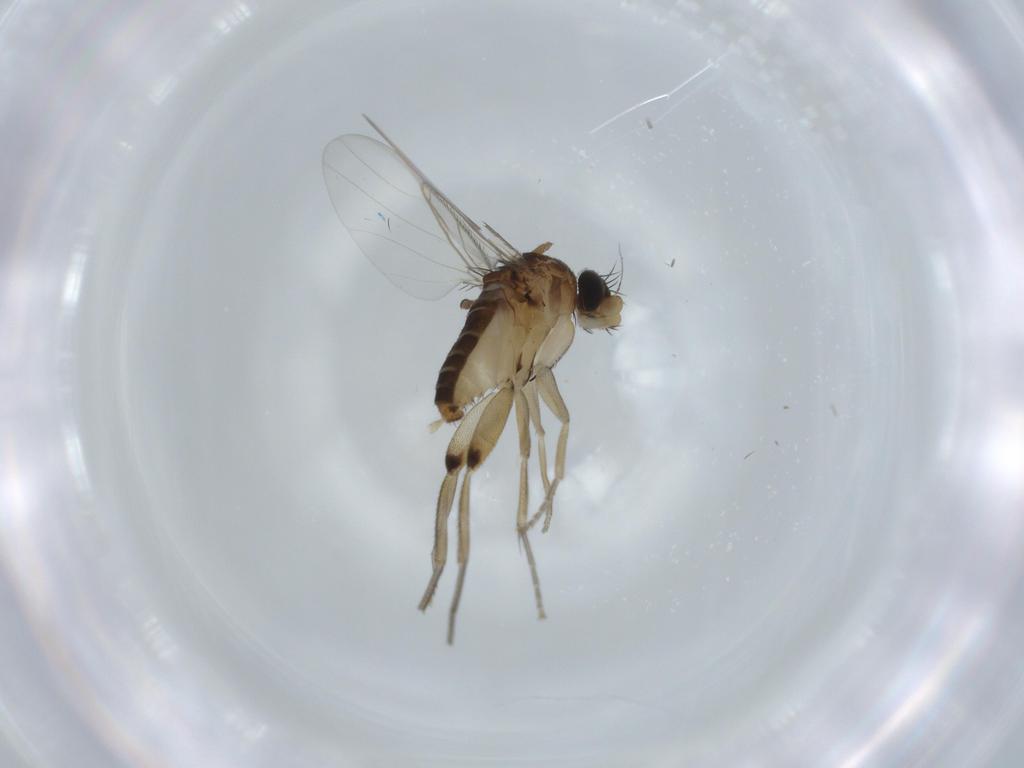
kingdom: Animalia
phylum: Arthropoda
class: Insecta
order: Diptera
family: Phoridae
